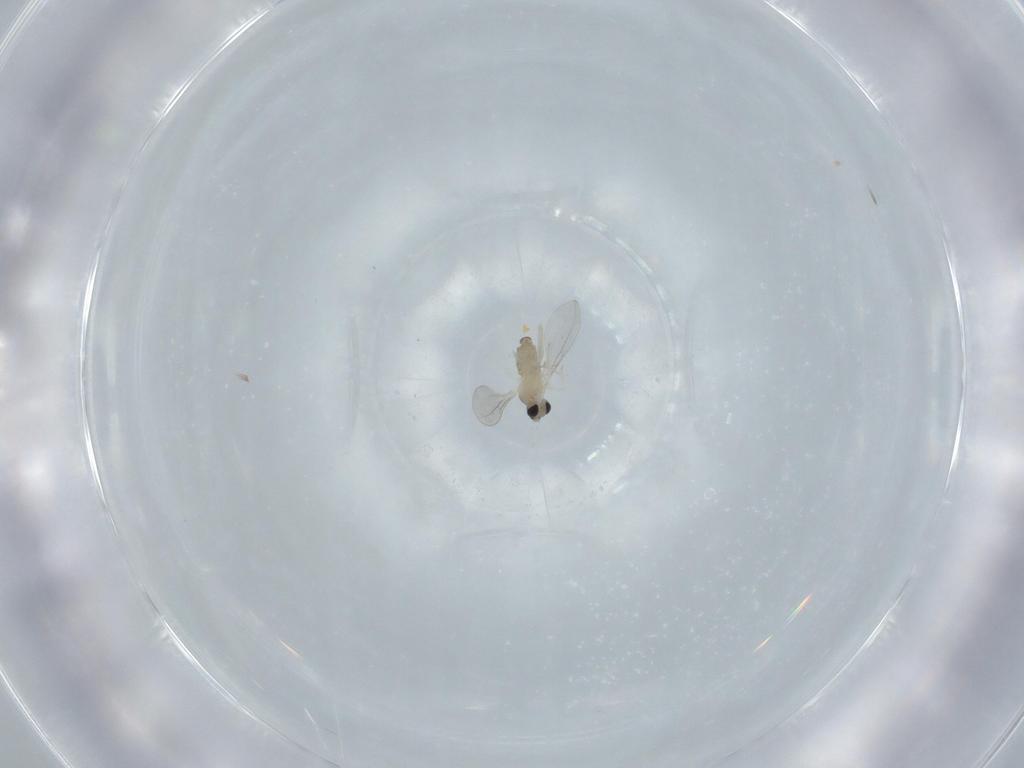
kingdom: Animalia
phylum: Arthropoda
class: Insecta
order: Diptera
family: Cecidomyiidae
